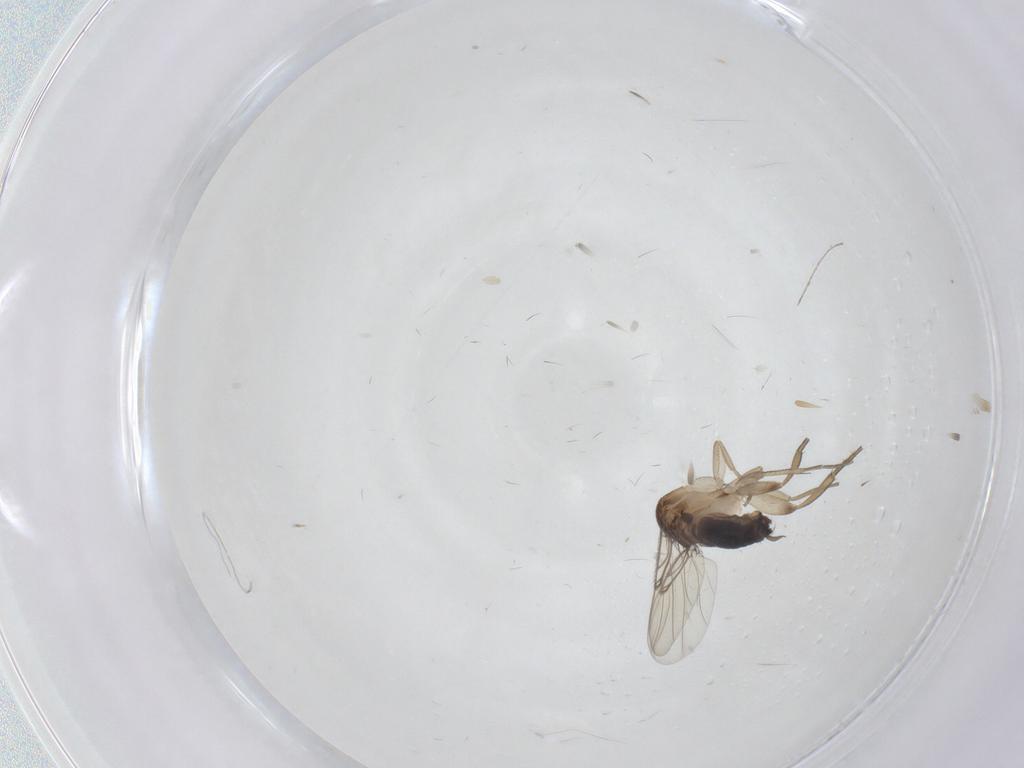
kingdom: Animalia
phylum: Arthropoda
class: Insecta
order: Diptera
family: Cecidomyiidae
